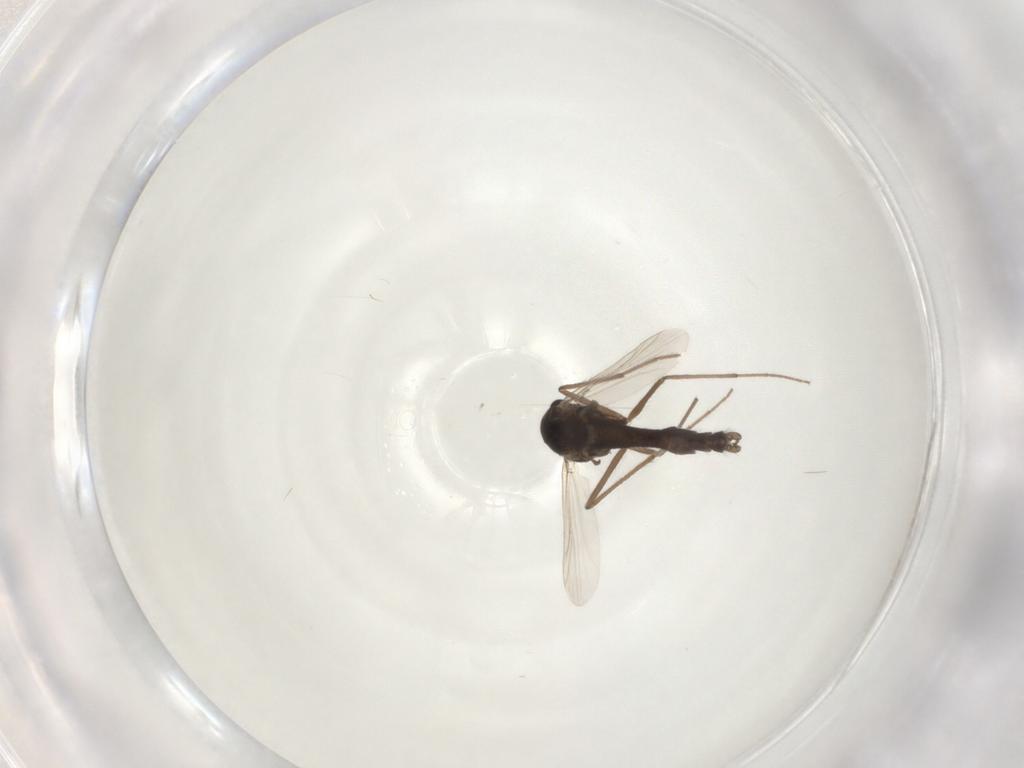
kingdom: Animalia
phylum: Arthropoda
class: Insecta
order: Diptera
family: Chironomidae
